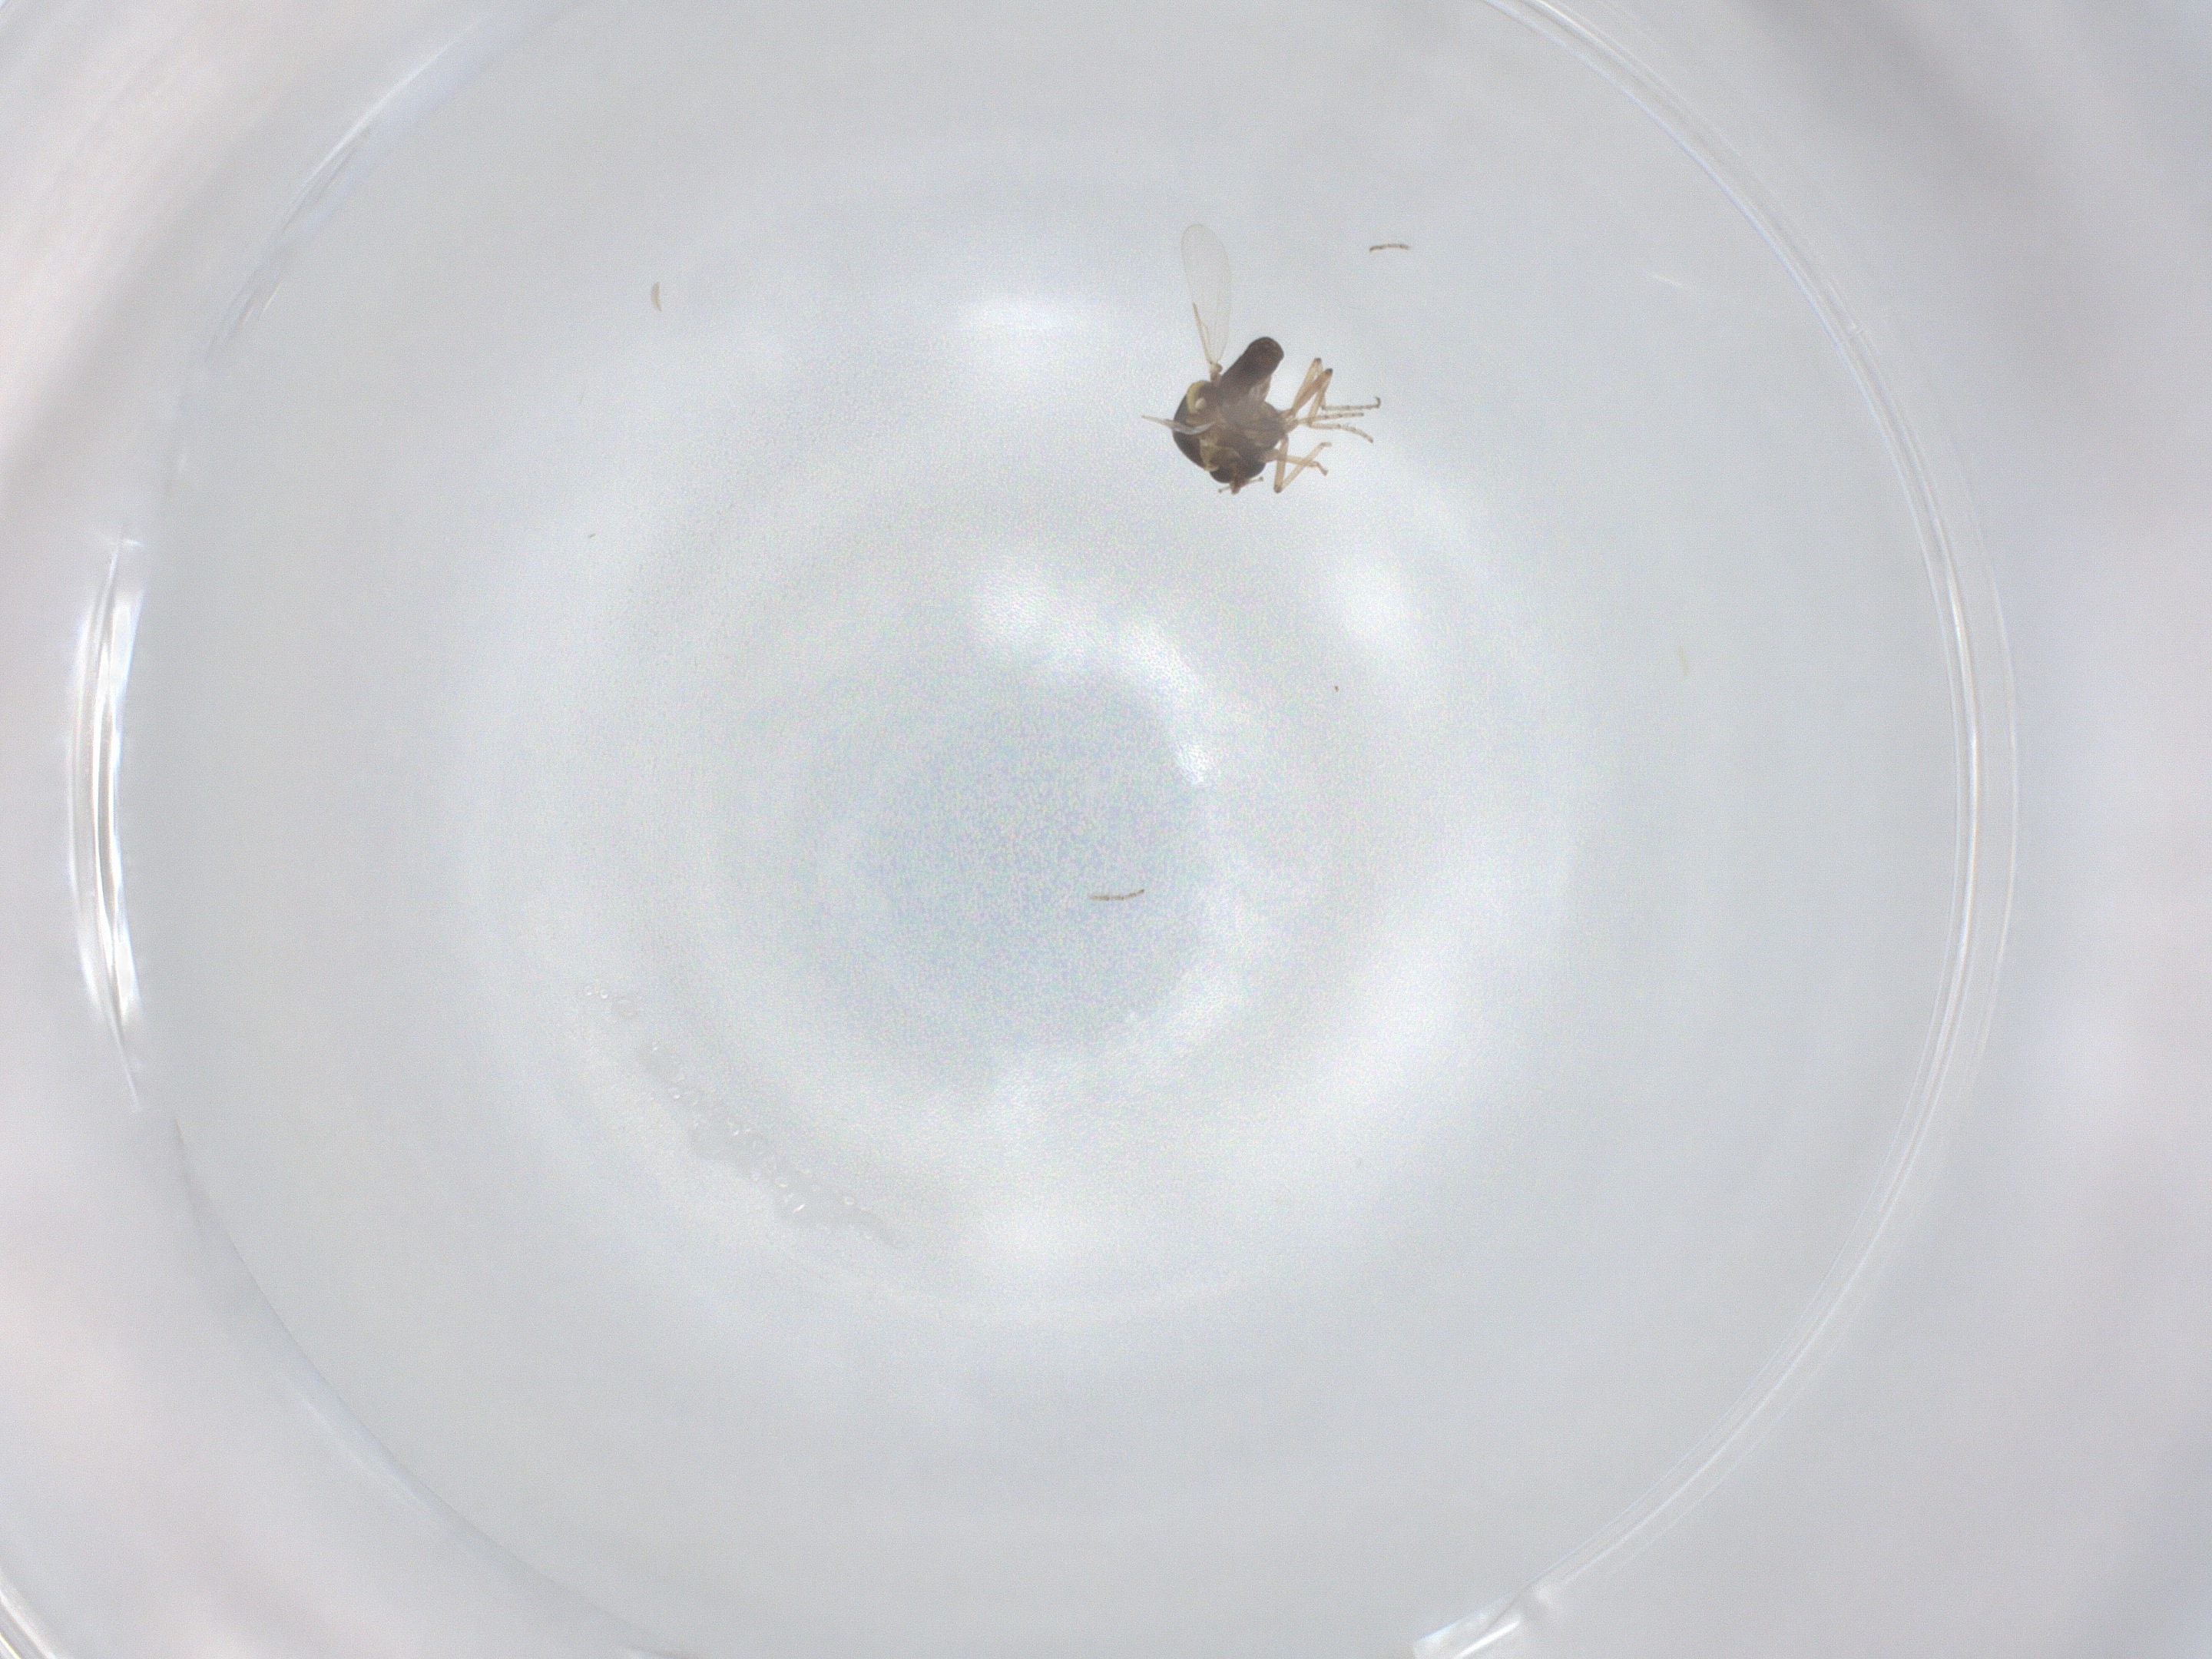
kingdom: Animalia
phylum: Arthropoda
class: Insecta
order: Diptera
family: Ceratopogonidae
